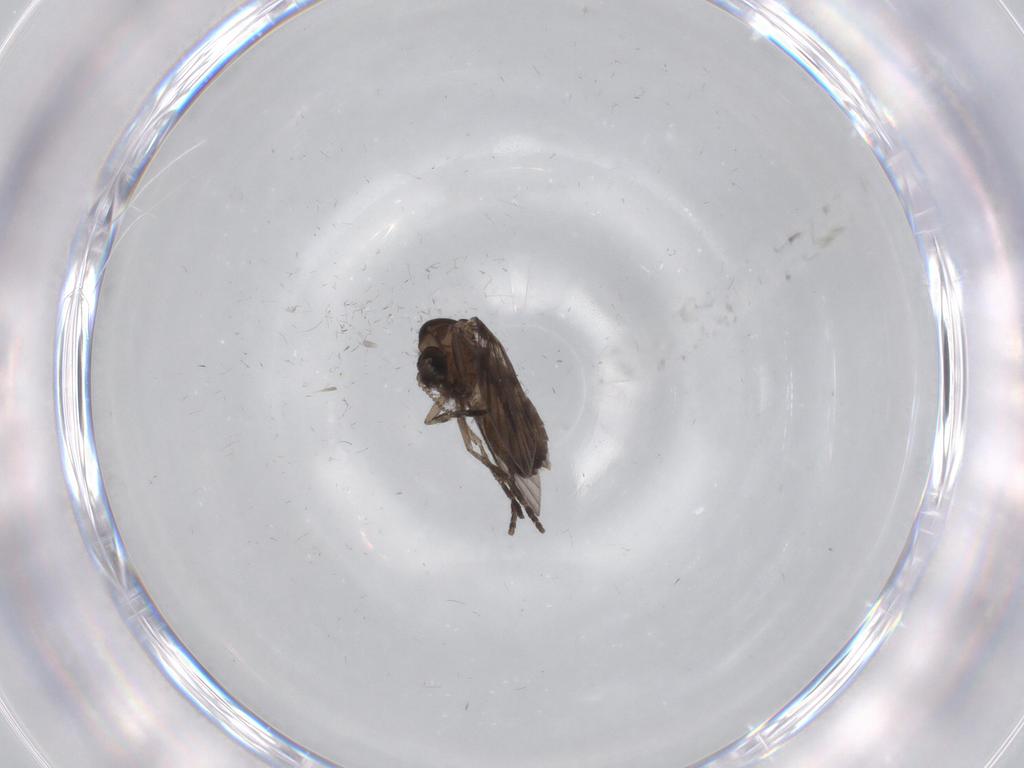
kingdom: Animalia
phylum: Arthropoda
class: Insecta
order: Diptera
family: Psychodidae
